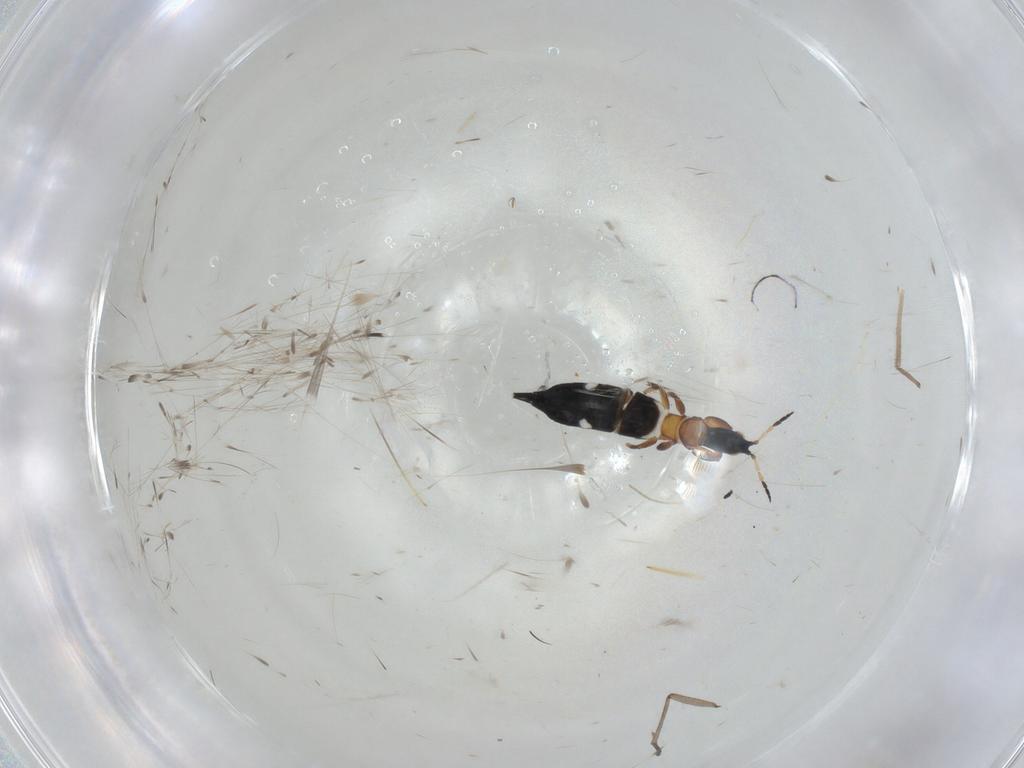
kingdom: Animalia
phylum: Arthropoda
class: Insecta
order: Thysanoptera
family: Phlaeothripidae
